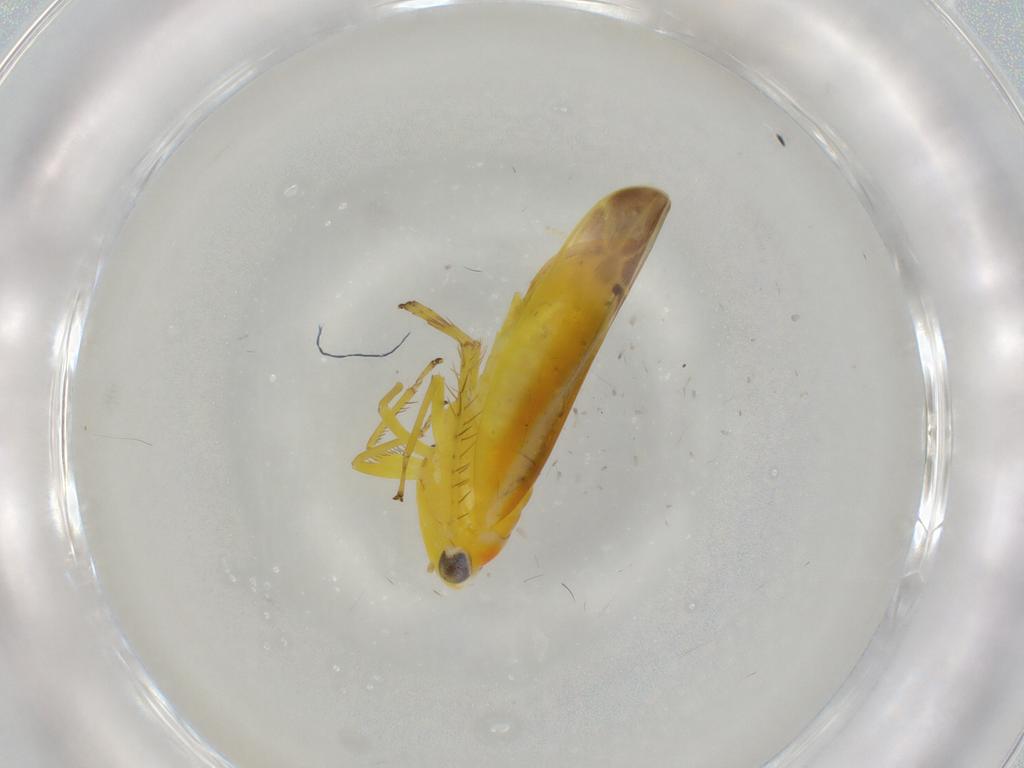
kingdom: Animalia
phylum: Arthropoda
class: Insecta
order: Hemiptera
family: Cicadellidae
